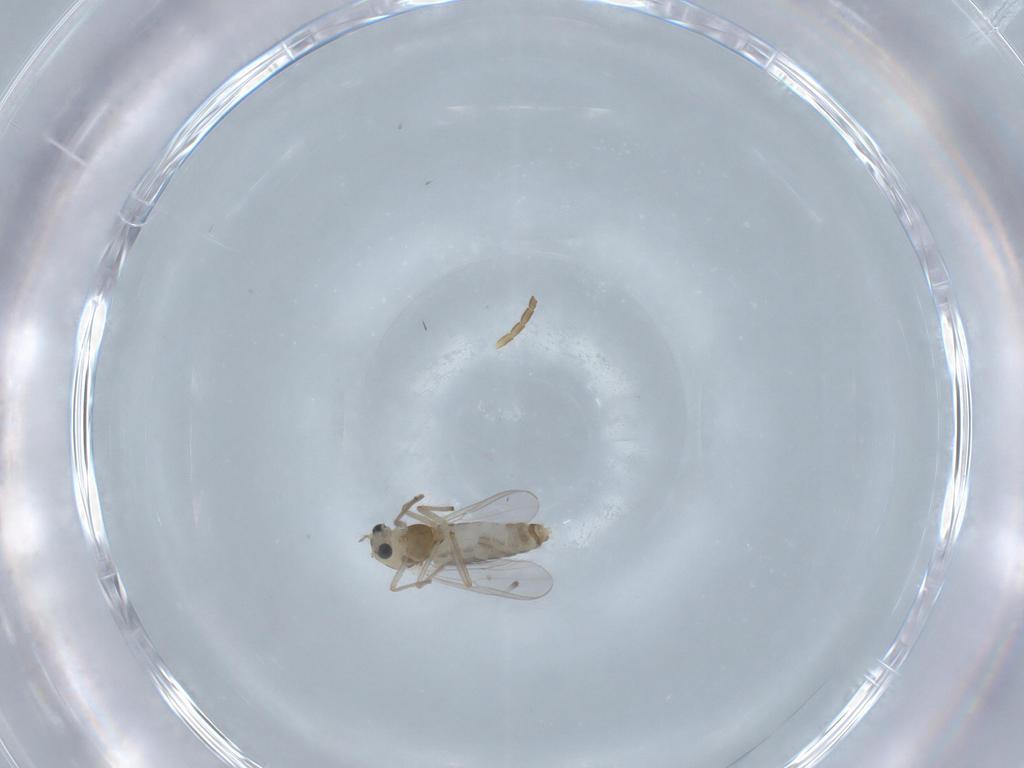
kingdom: Animalia
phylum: Arthropoda
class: Insecta
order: Diptera
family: Chironomidae
